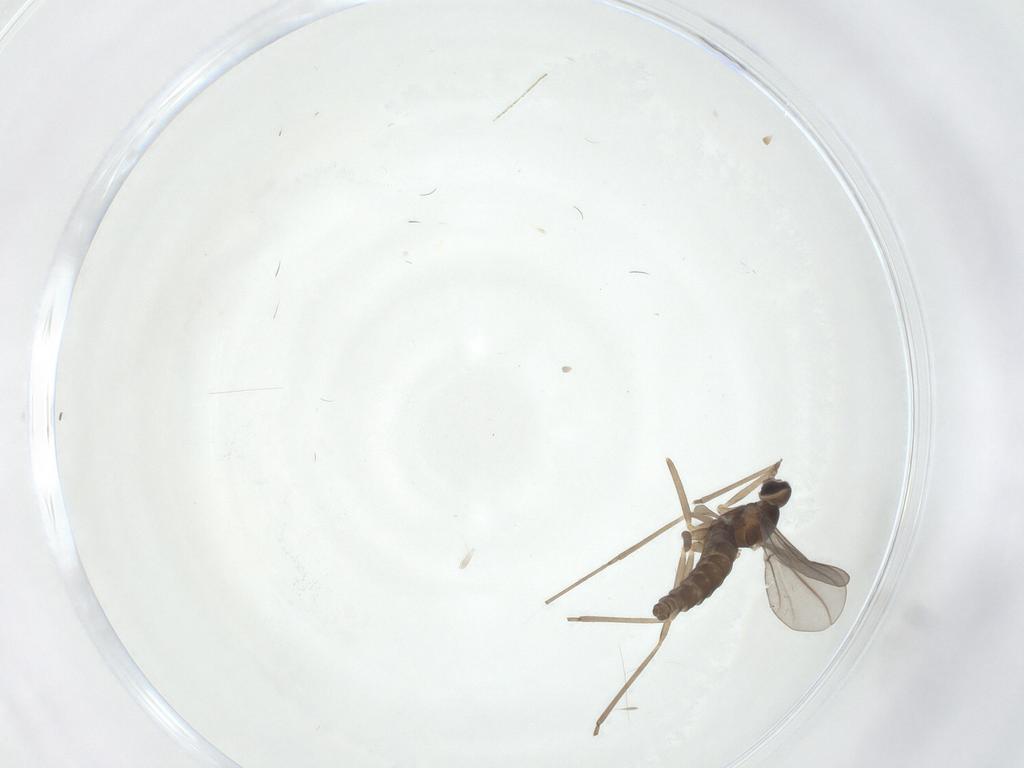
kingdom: Animalia
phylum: Arthropoda
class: Insecta
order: Diptera
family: Cecidomyiidae
